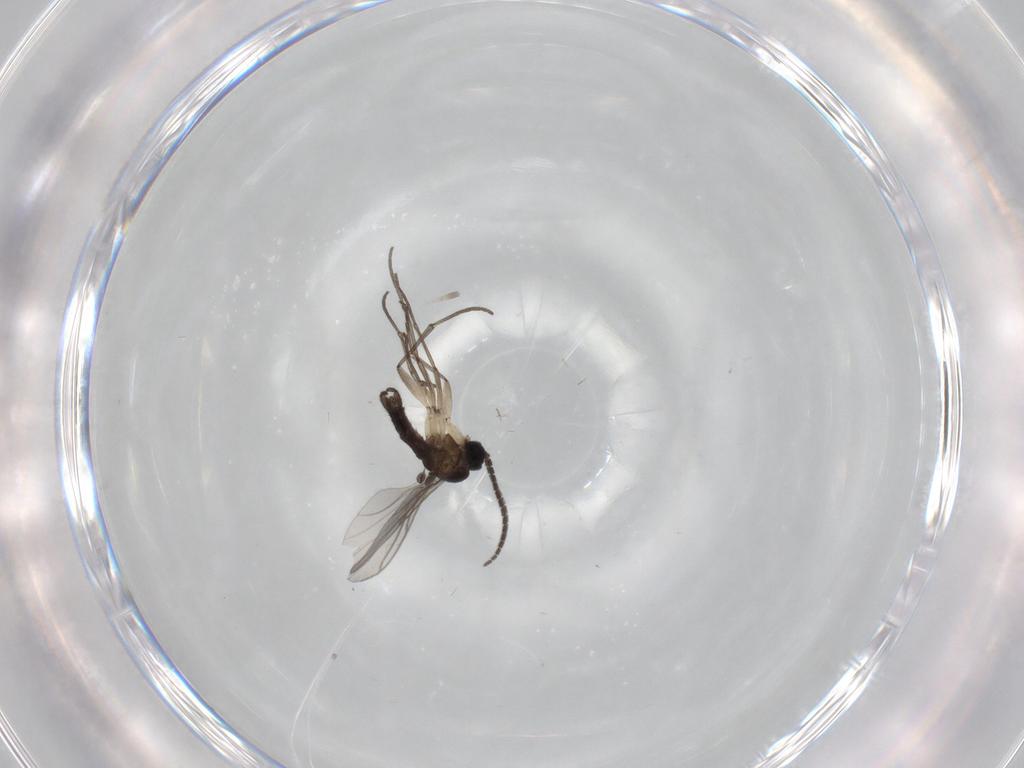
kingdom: Animalia
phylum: Arthropoda
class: Insecta
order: Diptera
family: Sciaridae
